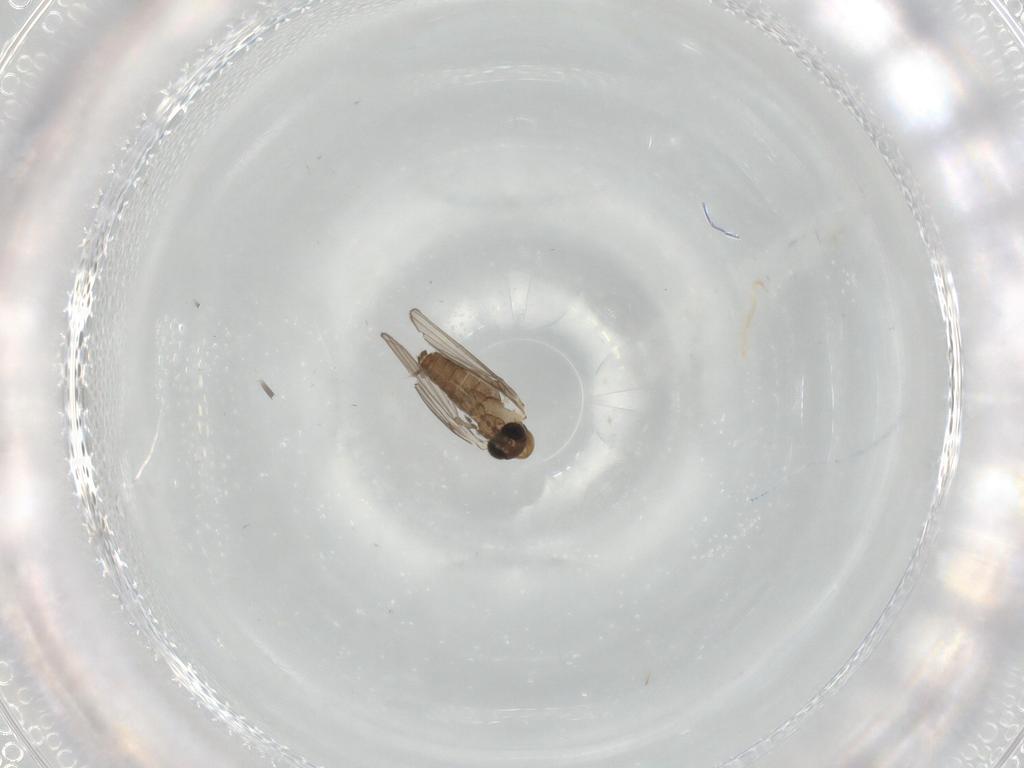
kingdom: Animalia
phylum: Arthropoda
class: Insecta
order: Diptera
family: Psychodidae
